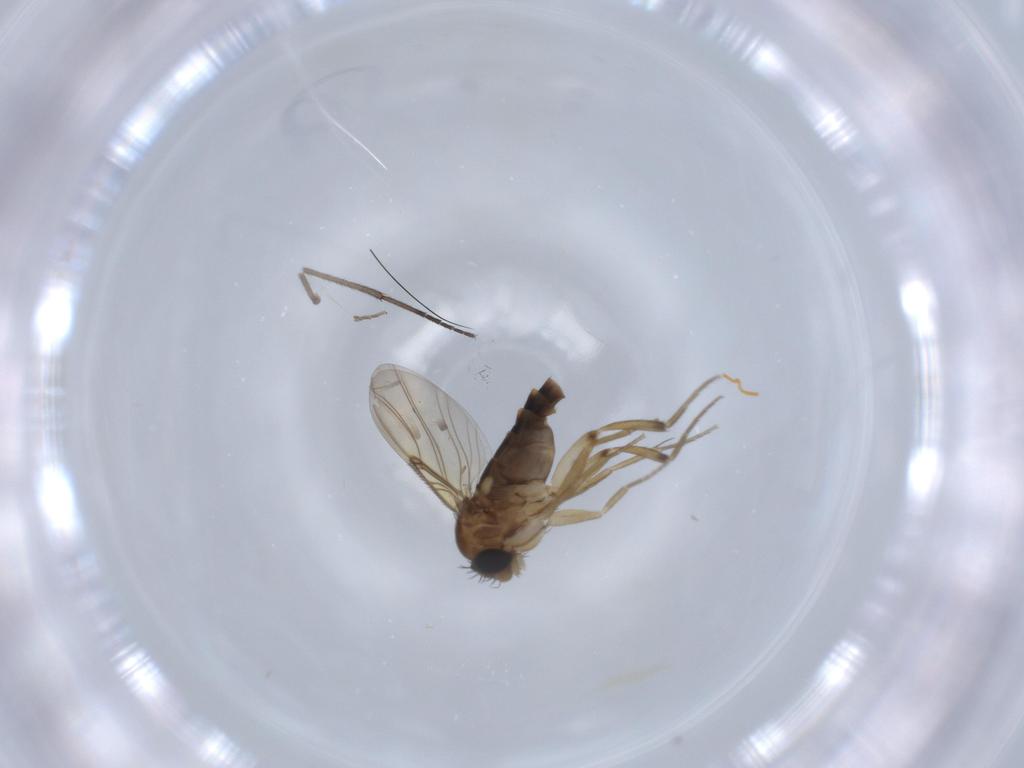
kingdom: Animalia
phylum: Arthropoda
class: Insecta
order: Diptera
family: Phoridae
